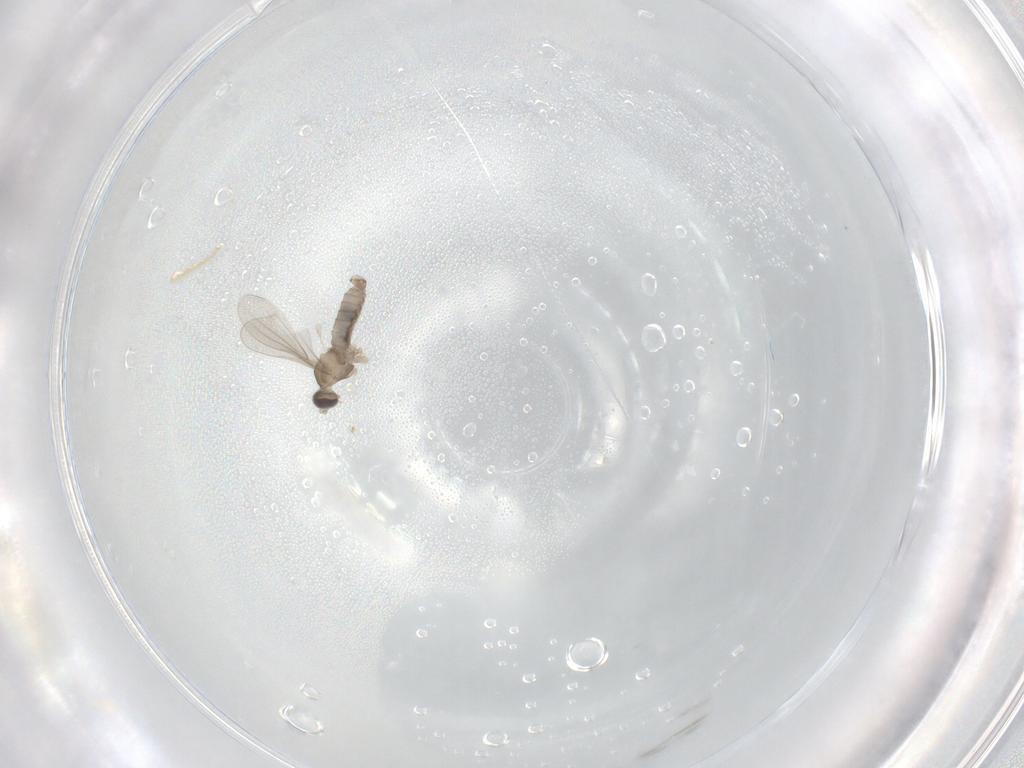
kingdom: Animalia
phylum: Arthropoda
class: Insecta
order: Diptera
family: Cecidomyiidae
